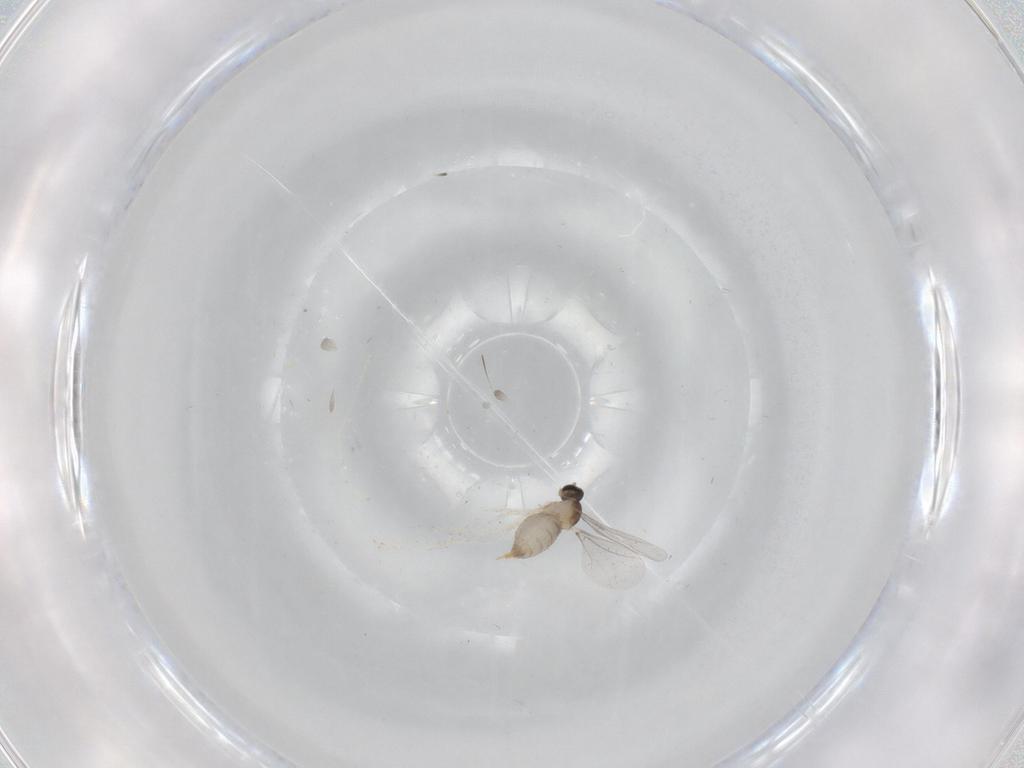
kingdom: Animalia
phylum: Arthropoda
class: Insecta
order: Diptera
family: Cecidomyiidae
